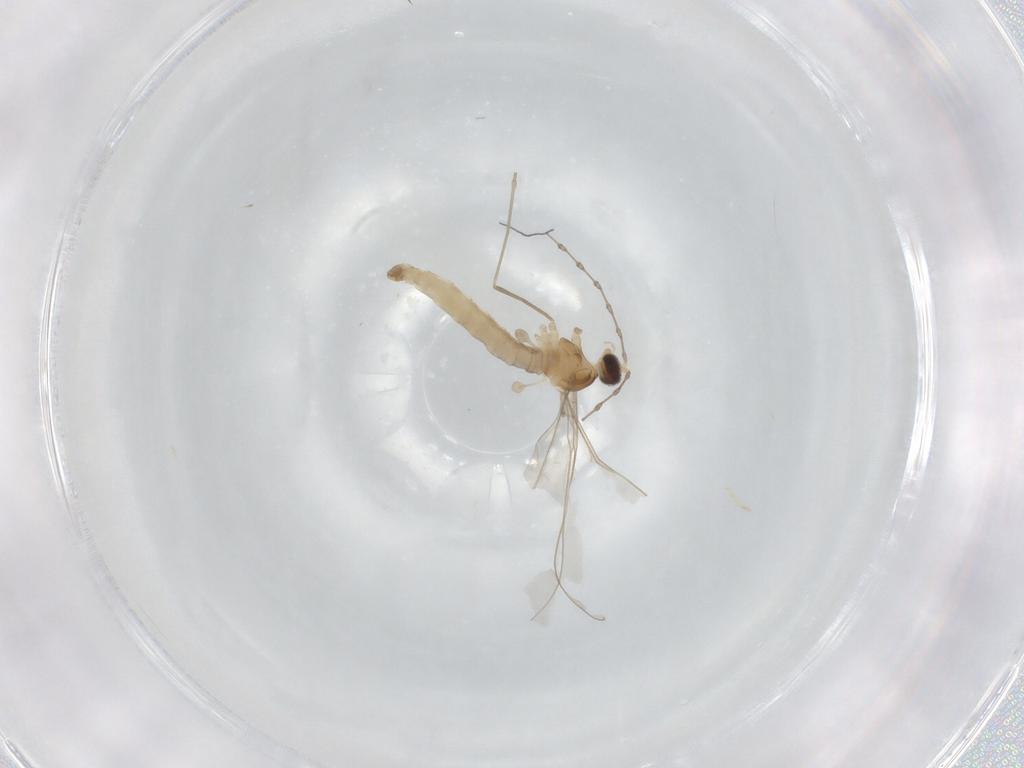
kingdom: Animalia
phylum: Arthropoda
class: Insecta
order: Diptera
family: Cecidomyiidae
